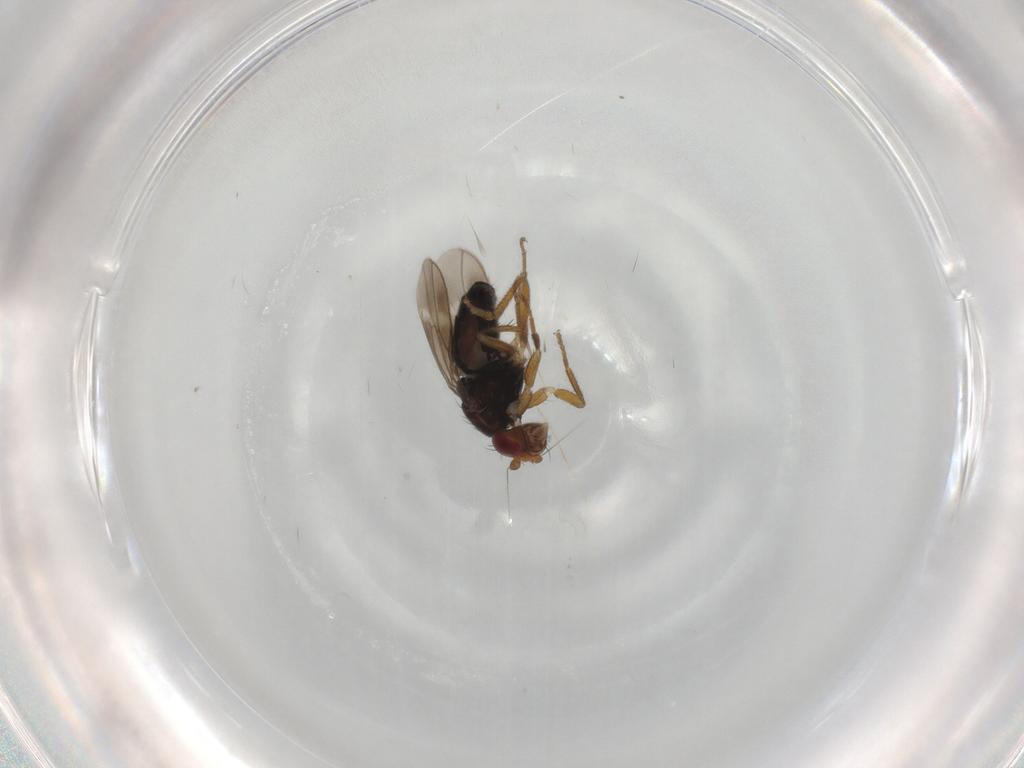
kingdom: Animalia
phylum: Arthropoda
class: Insecta
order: Diptera
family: Sphaeroceridae
